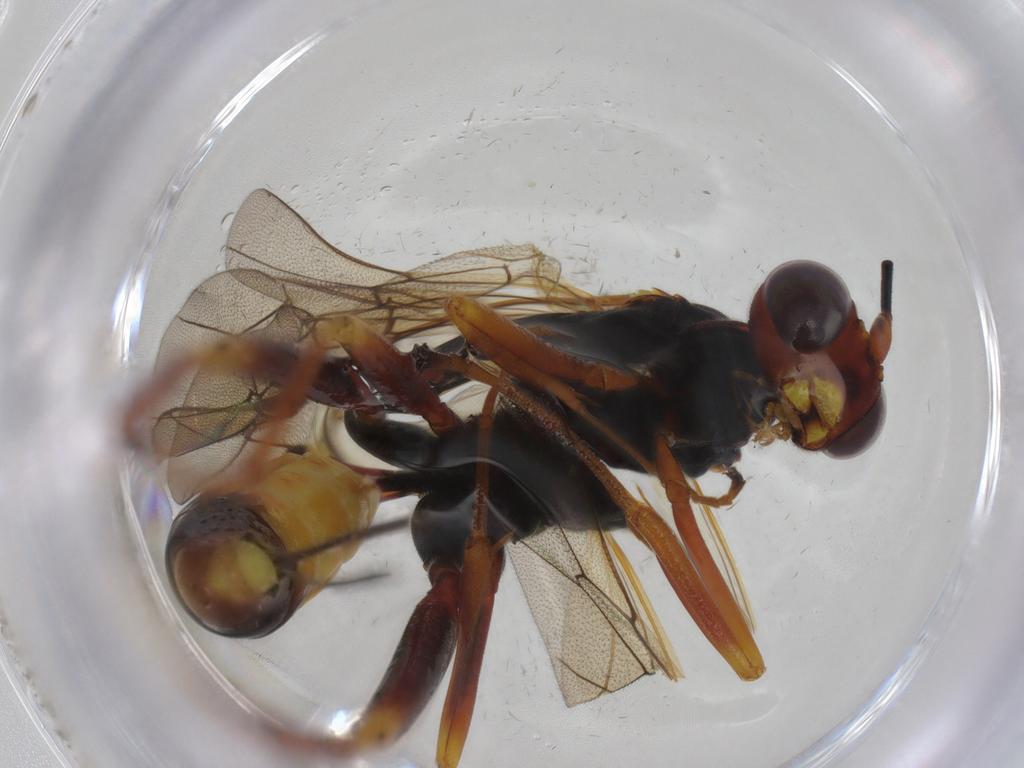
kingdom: Animalia
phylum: Arthropoda
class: Insecta
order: Hymenoptera
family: Ichneumonidae
